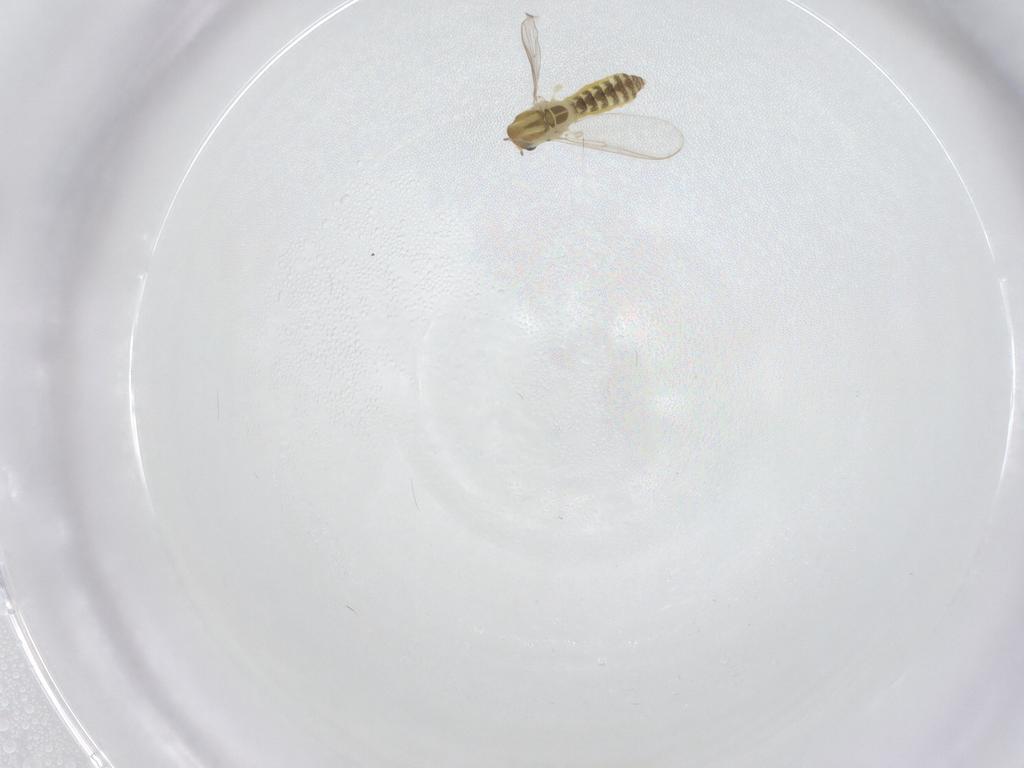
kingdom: Animalia
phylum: Arthropoda
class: Insecta
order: Diptera
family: Chironomidae
